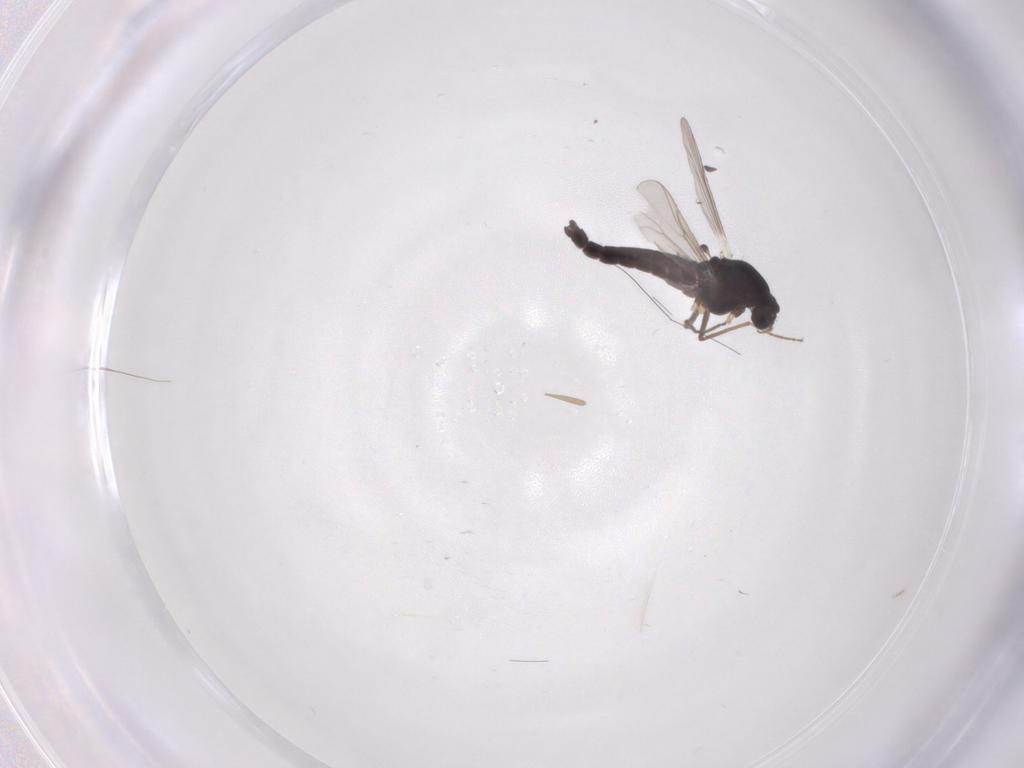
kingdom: Animalia
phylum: Arthropoda
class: Insecta
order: Diptera
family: Chironomidae
